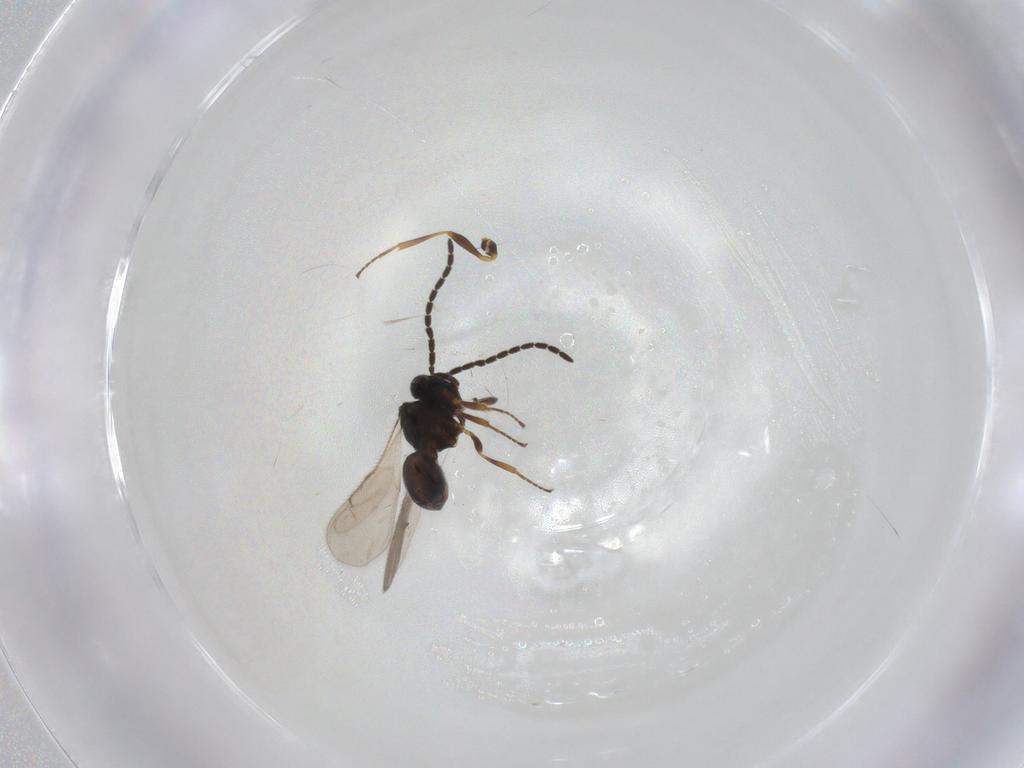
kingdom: Animalia
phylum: Arthropoda
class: Insecta
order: Hymenoptera
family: Scelionidae
